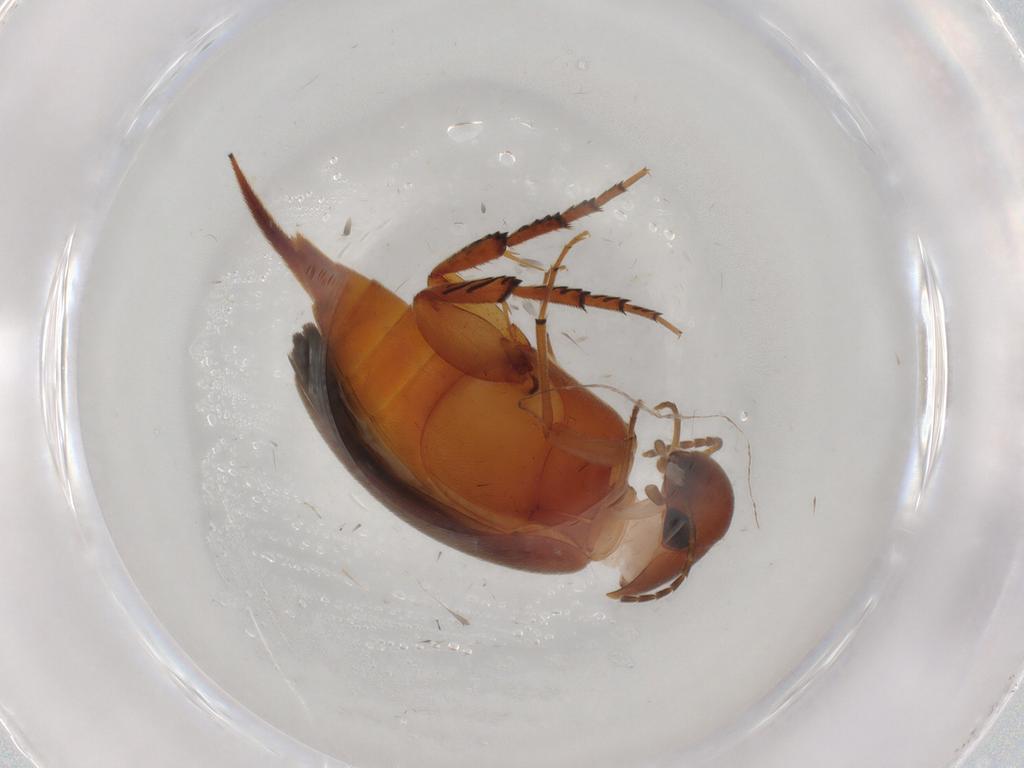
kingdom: Animalia
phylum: Arthropoda
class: Insecta
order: Coleoptera
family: Mordellidae
